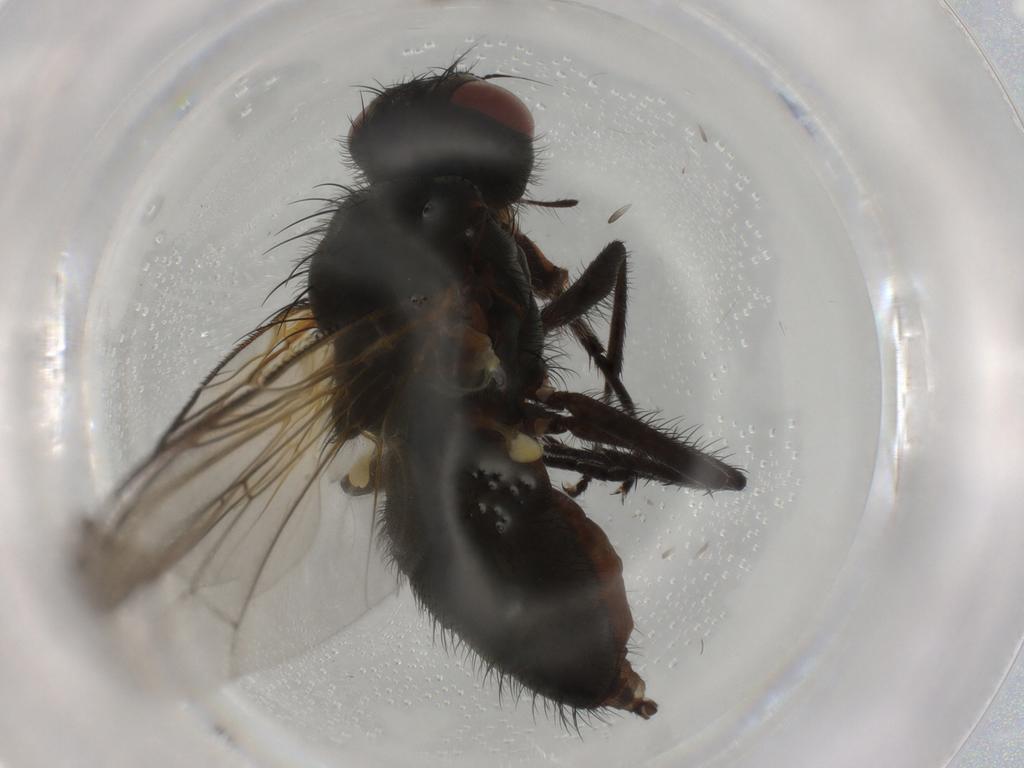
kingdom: Animalia
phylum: Arthropoda
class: Insecta
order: Diptera
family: Anthomyiidae
